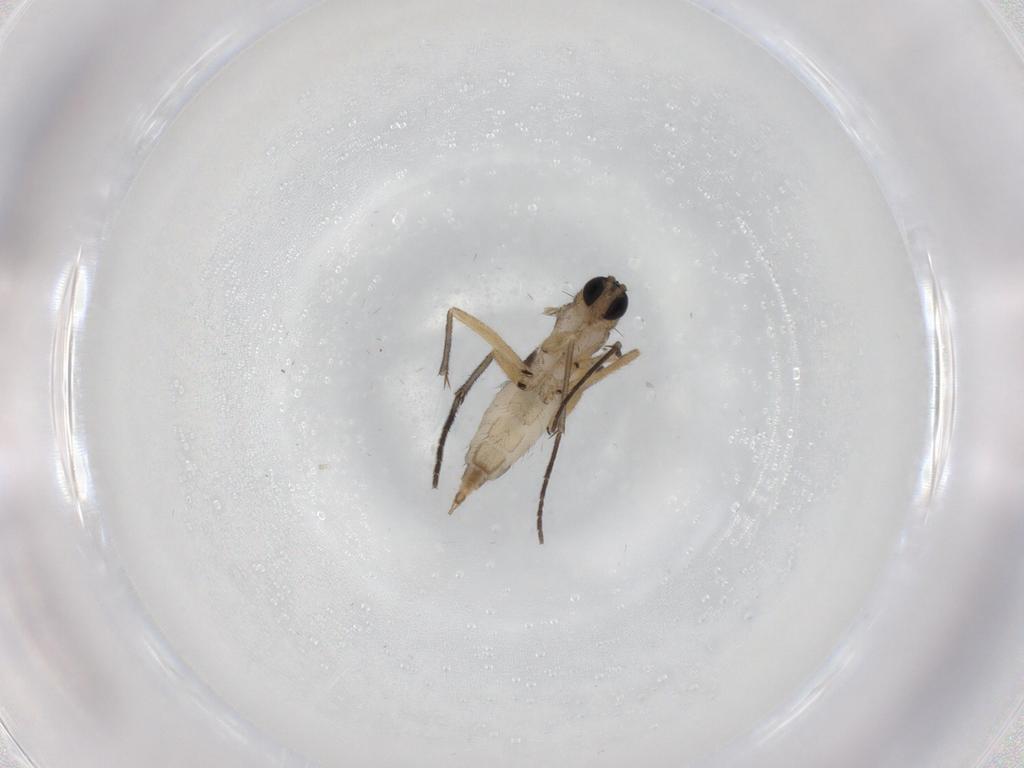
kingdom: Animalia
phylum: Arthropoda
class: Insecta
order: Diptera
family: Sciaridae
